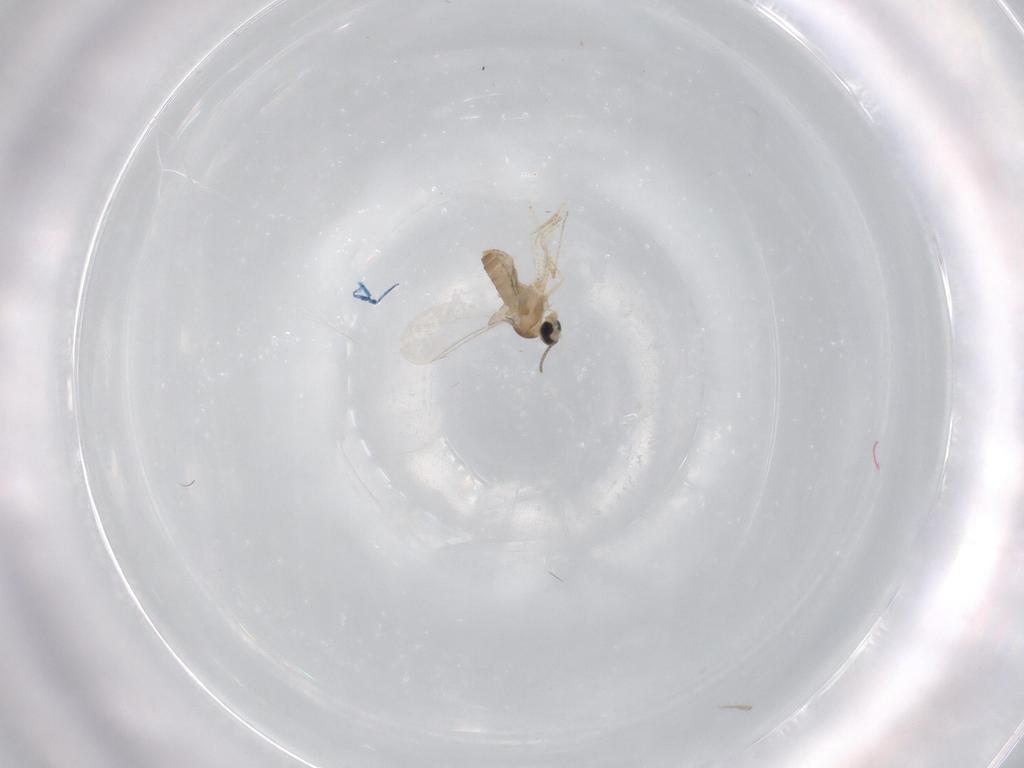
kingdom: Animalia
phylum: Arthropoda
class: Insecta
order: Diptera
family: Cecidomyiidae
